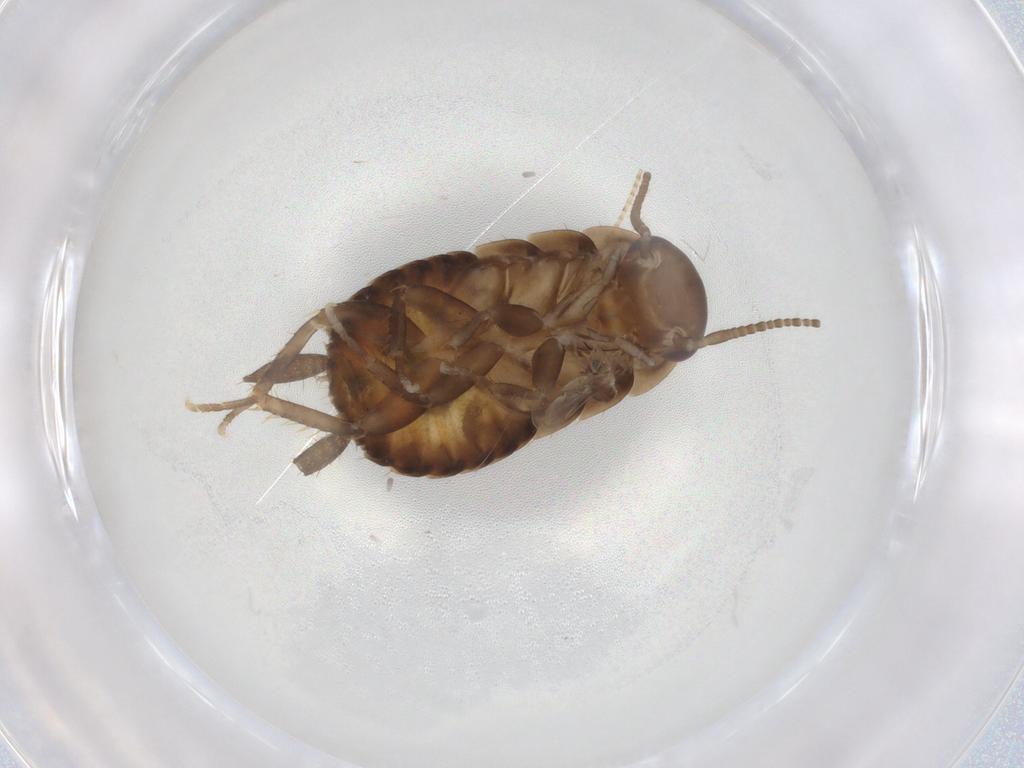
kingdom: Animalia
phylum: Arthropoda
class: Insecta
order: Blattodea
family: Ectobiidae
